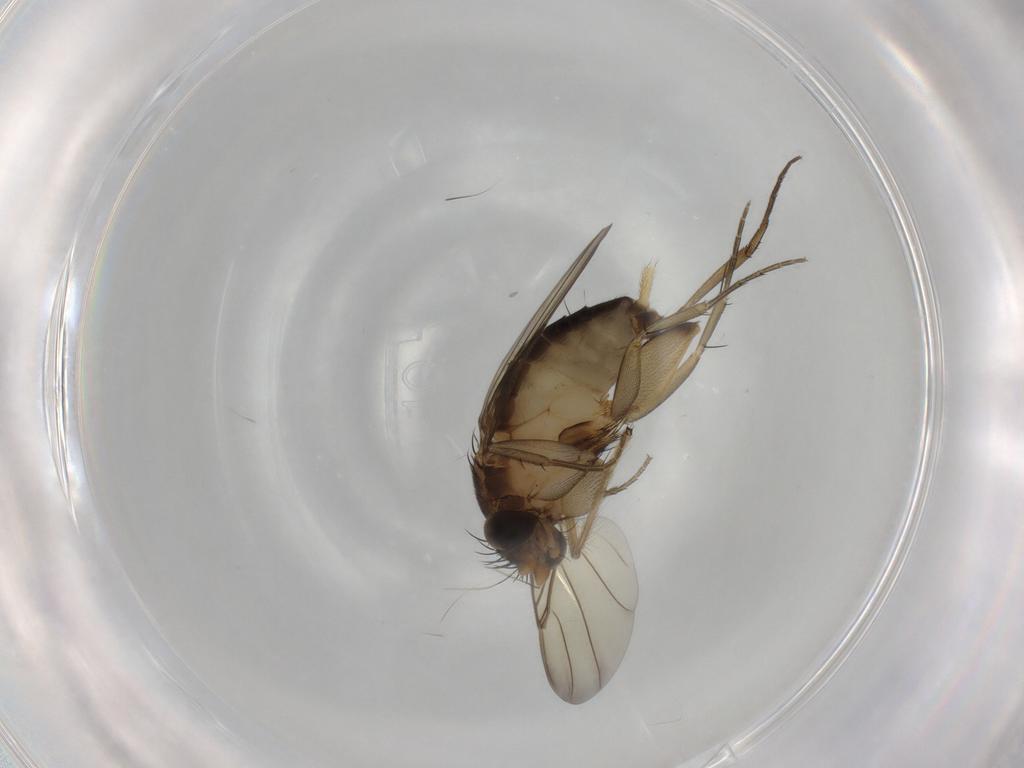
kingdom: Animalia
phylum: Arthropoda
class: Insecta
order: Diptera
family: Phoridae
